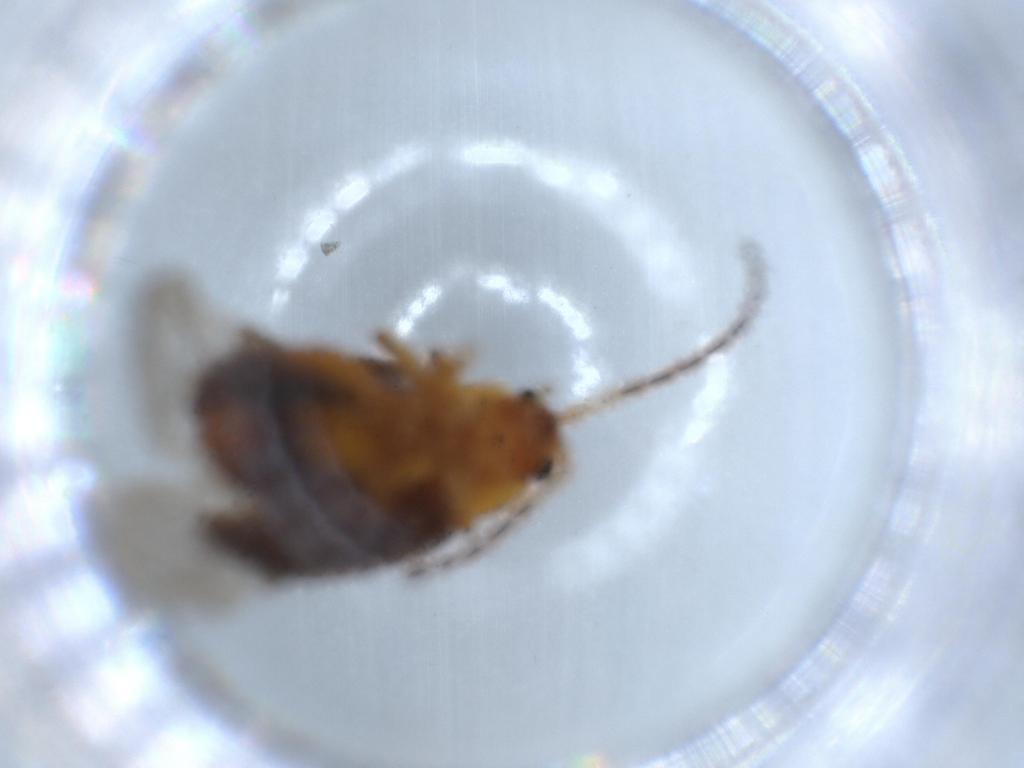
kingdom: Animalia
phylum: Arthropoda
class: Insecta
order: Coleoptera
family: Chrysomelidae
